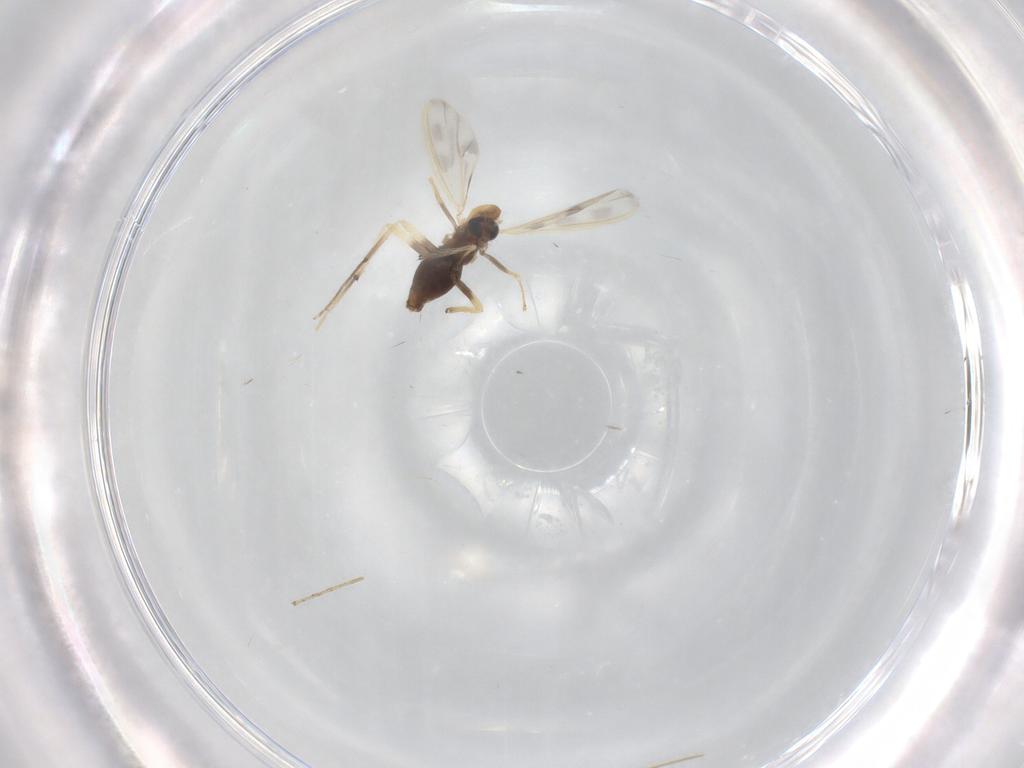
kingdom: Animalia
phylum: Arthropoda
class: Insecta
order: Diptera
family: Chironomidae
